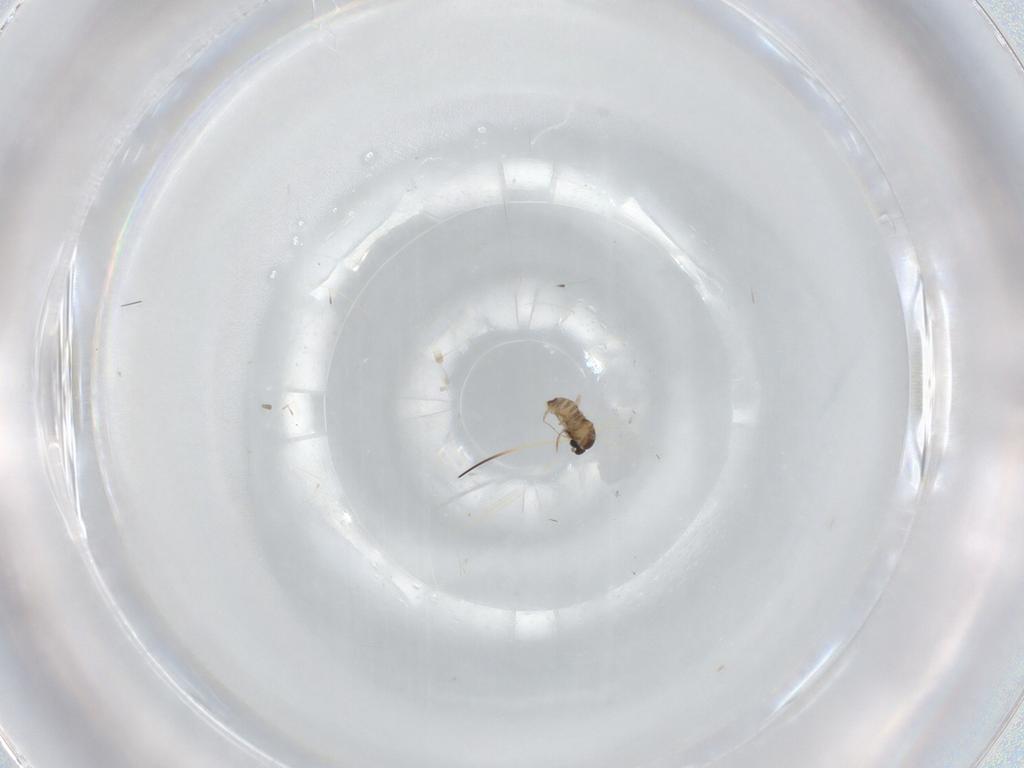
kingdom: Animalia
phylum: Arthropoda
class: Insecta
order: Diptera
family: Cecidomyiidae
